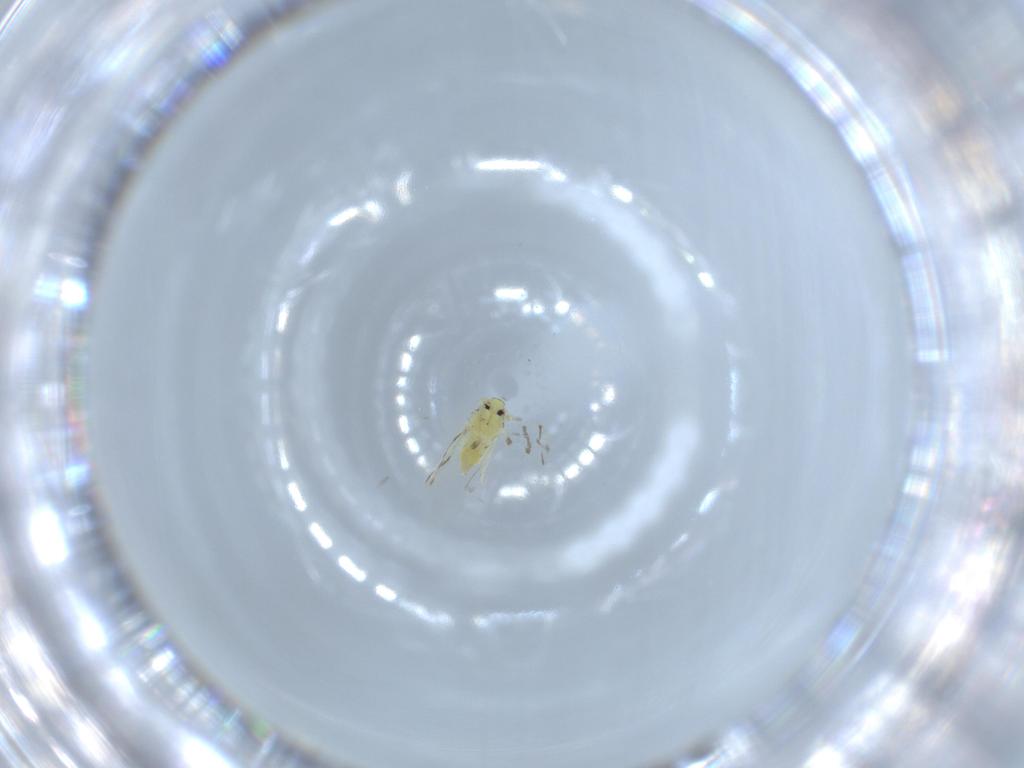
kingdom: Animalia
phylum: Arthropoda
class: Insecta
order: Hemiptera
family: Aleyrodidae
